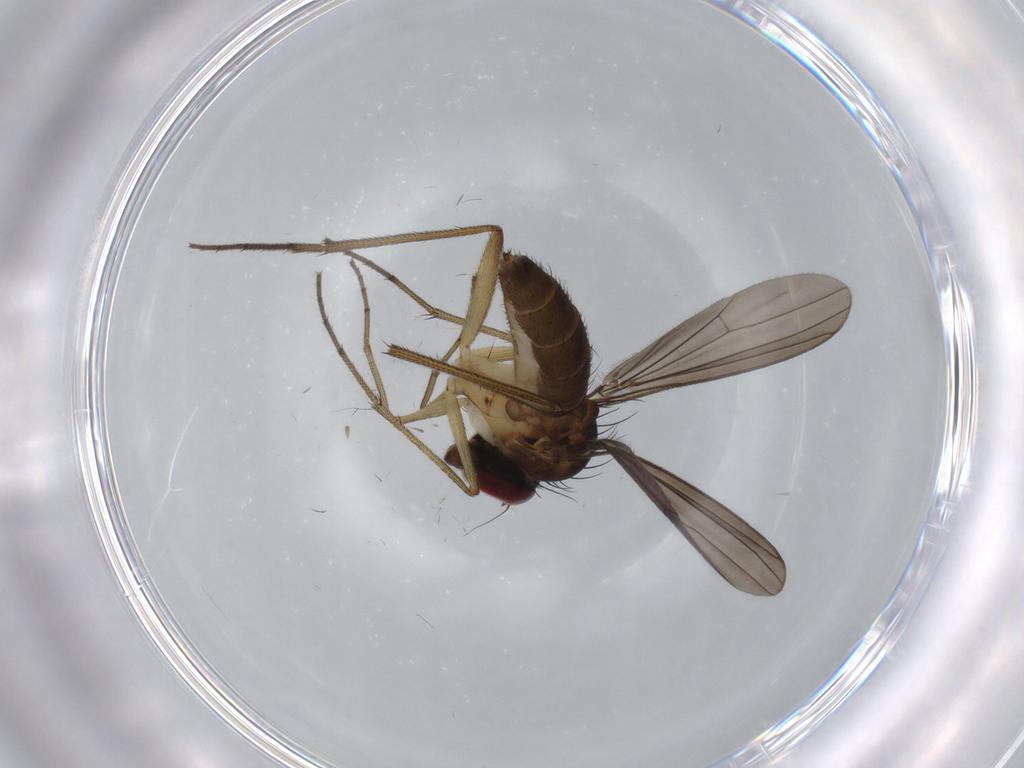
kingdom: Animalia
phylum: Arthropoda
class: Insecta
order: Diptera
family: Dolichopodidae
